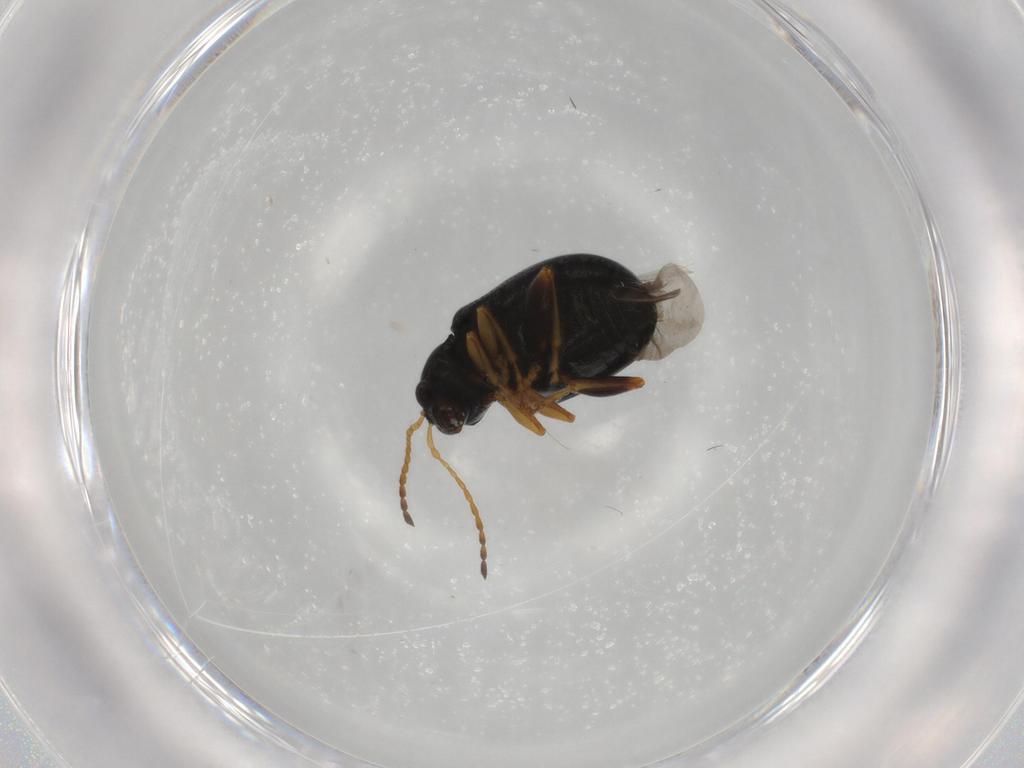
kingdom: Animalia
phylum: Arthropoda
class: Insecta
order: Coleoptera
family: Chrysomelidae
